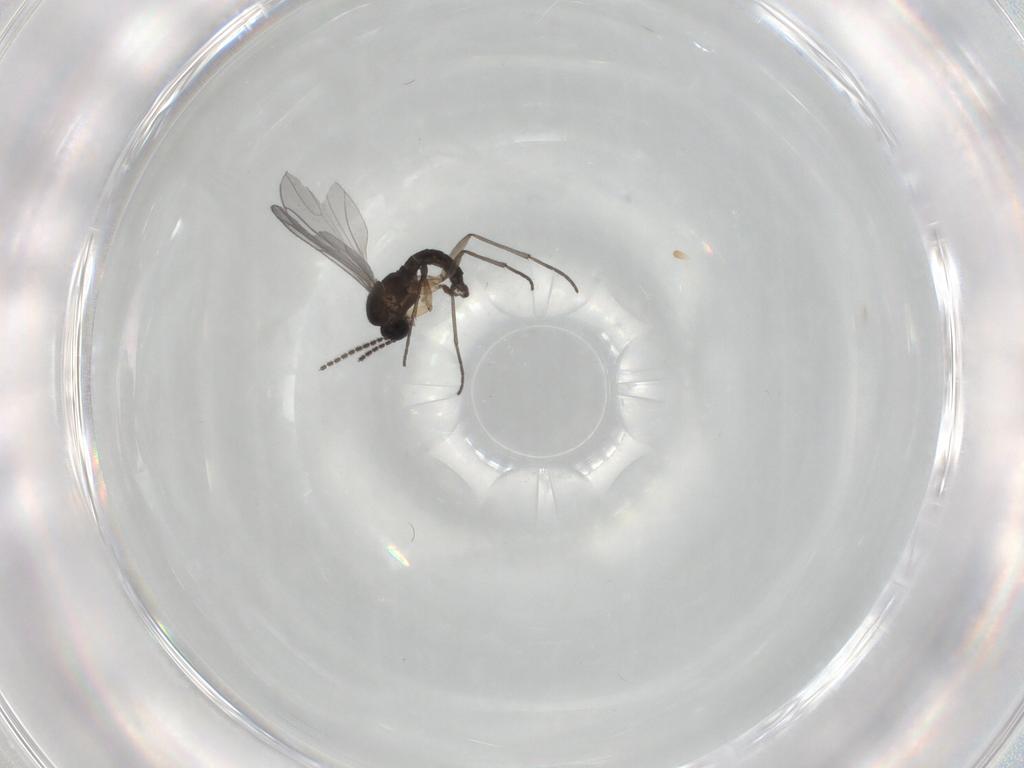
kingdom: Animalia
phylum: Arthropoda
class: Insecta
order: Diptera
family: Sciaridae
